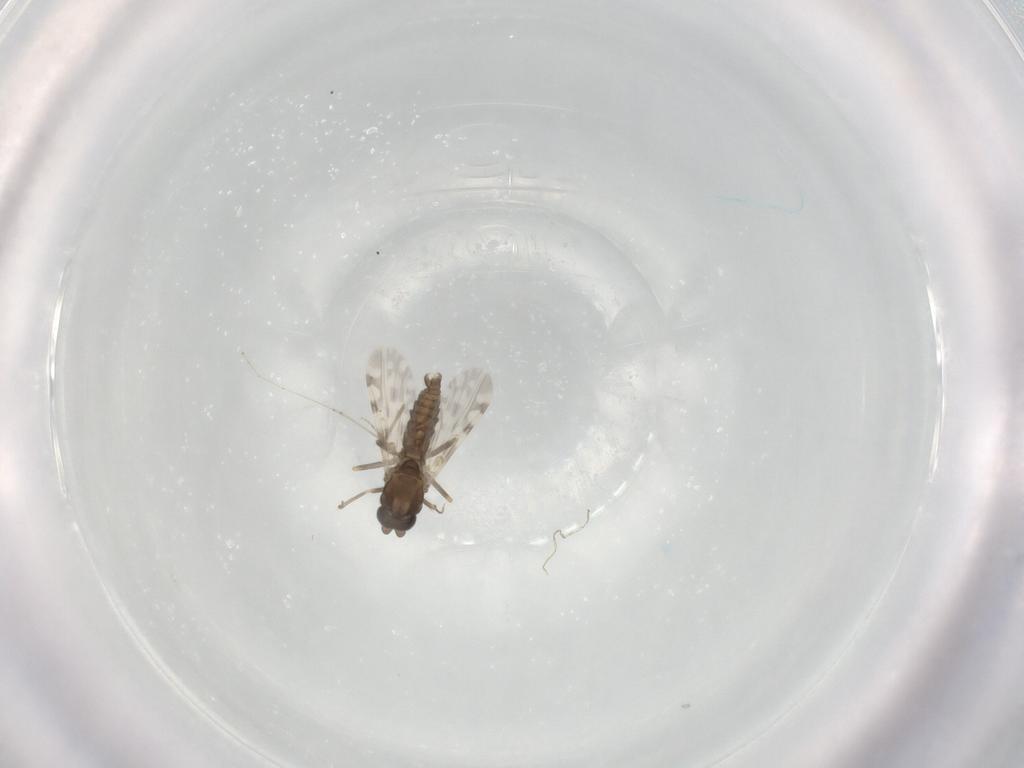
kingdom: Animalia
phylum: Arthropoda
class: Insecta
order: Diptera
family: Ceratopogonidae
